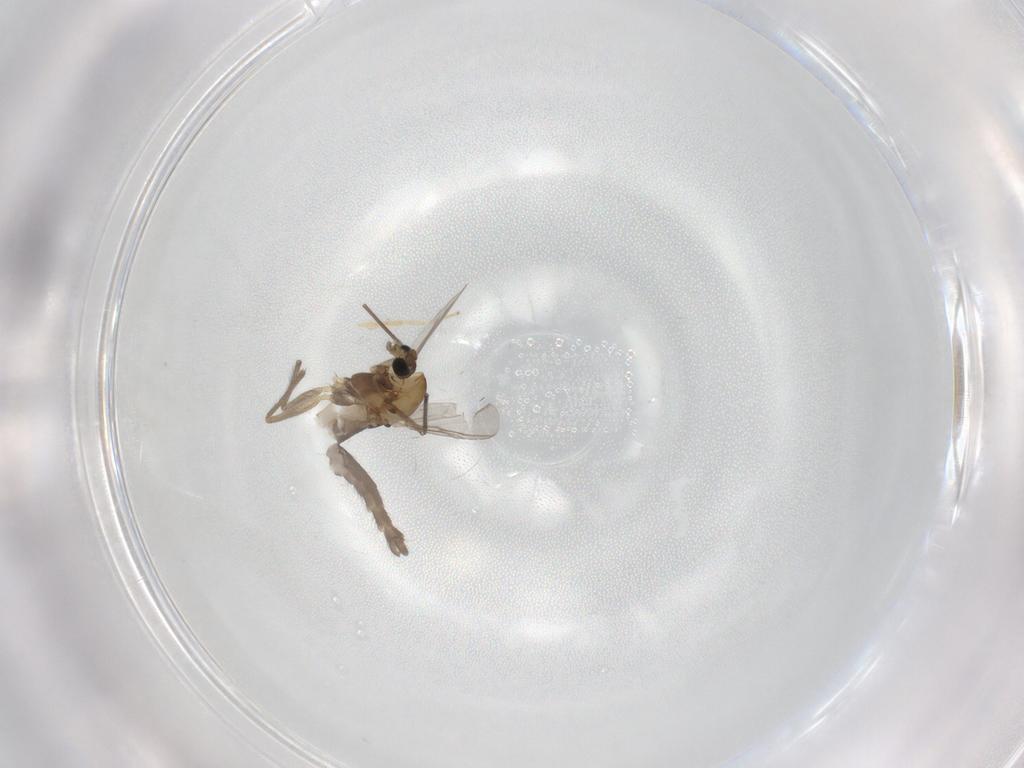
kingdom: Animalia
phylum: Arthropoda
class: Insecta
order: Diptera
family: Chironomidae
